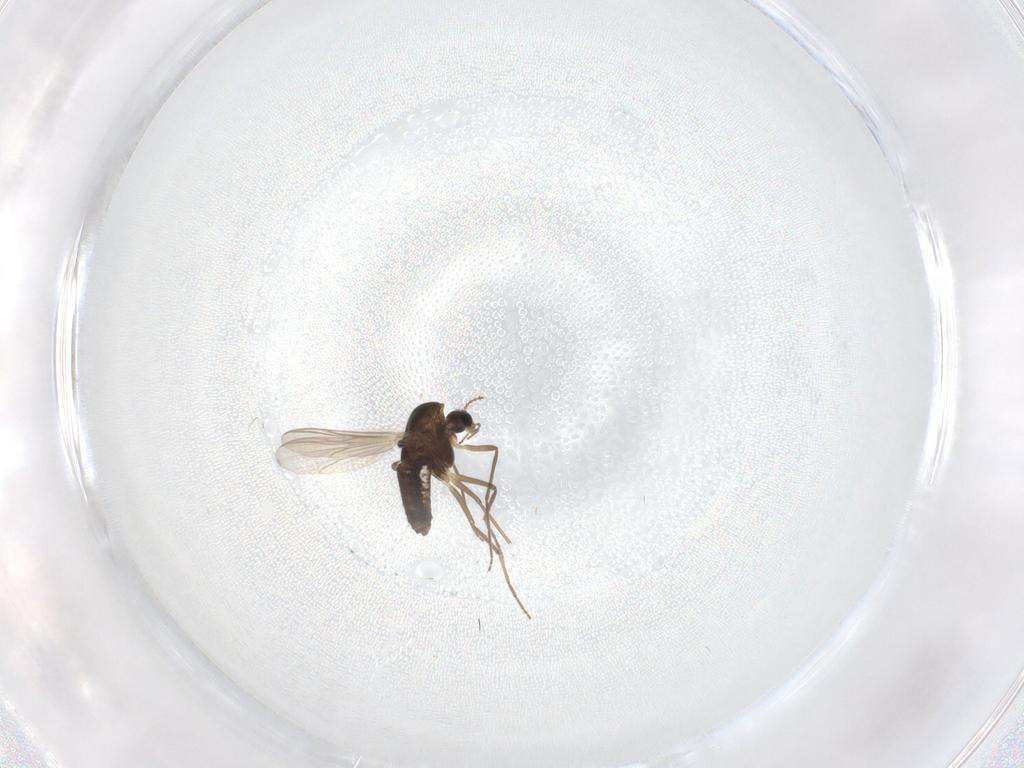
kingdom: Animalia
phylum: Arthropoda
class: Insecta
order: Diptera
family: Chironomidae
